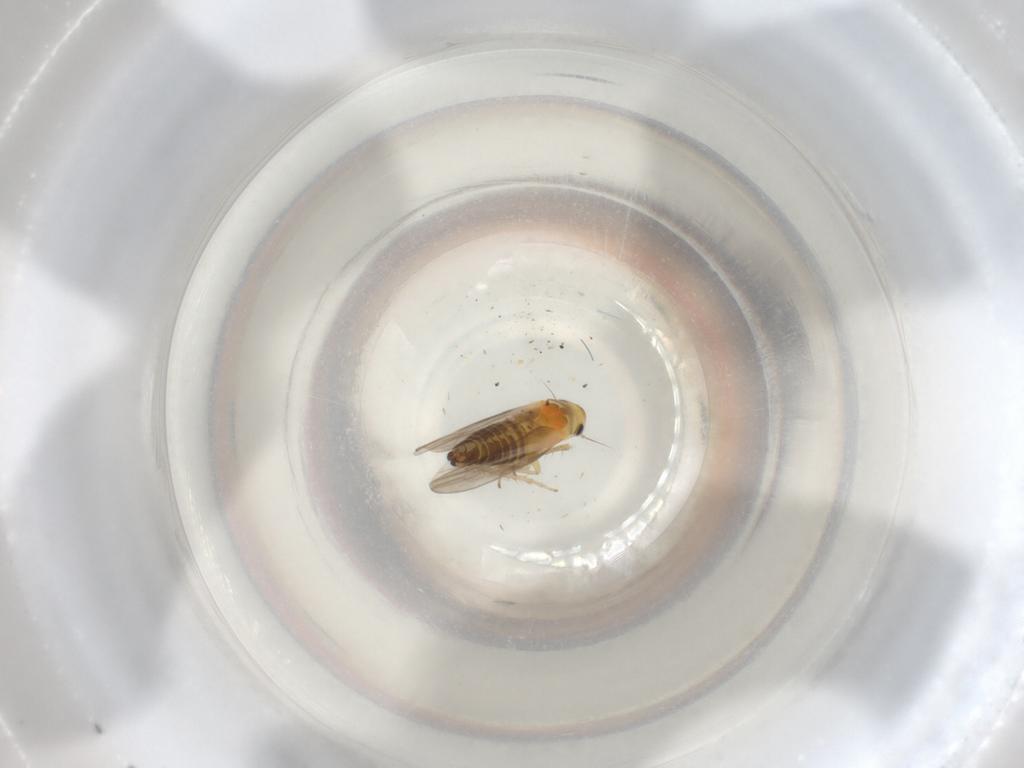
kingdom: Animalia
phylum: Arthropoda
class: Insecta
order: Hemiptera
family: Cicadellidae
